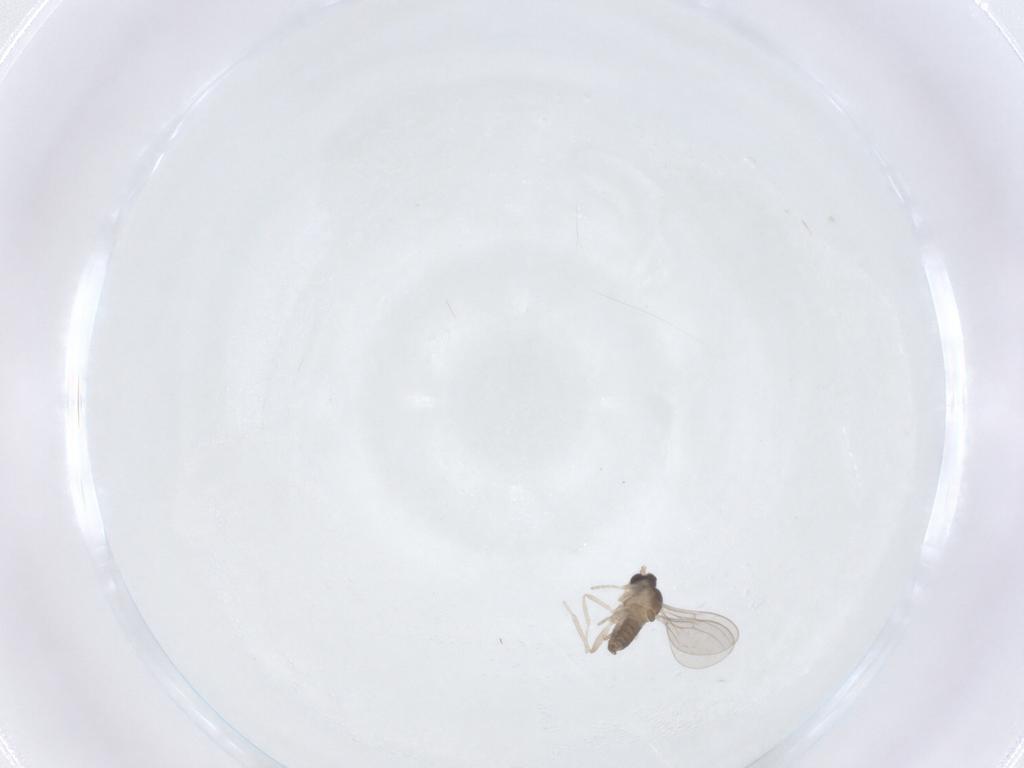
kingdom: Animalia
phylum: Arthropoda
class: Insecta
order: Diptera
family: Cecidomyiidae
